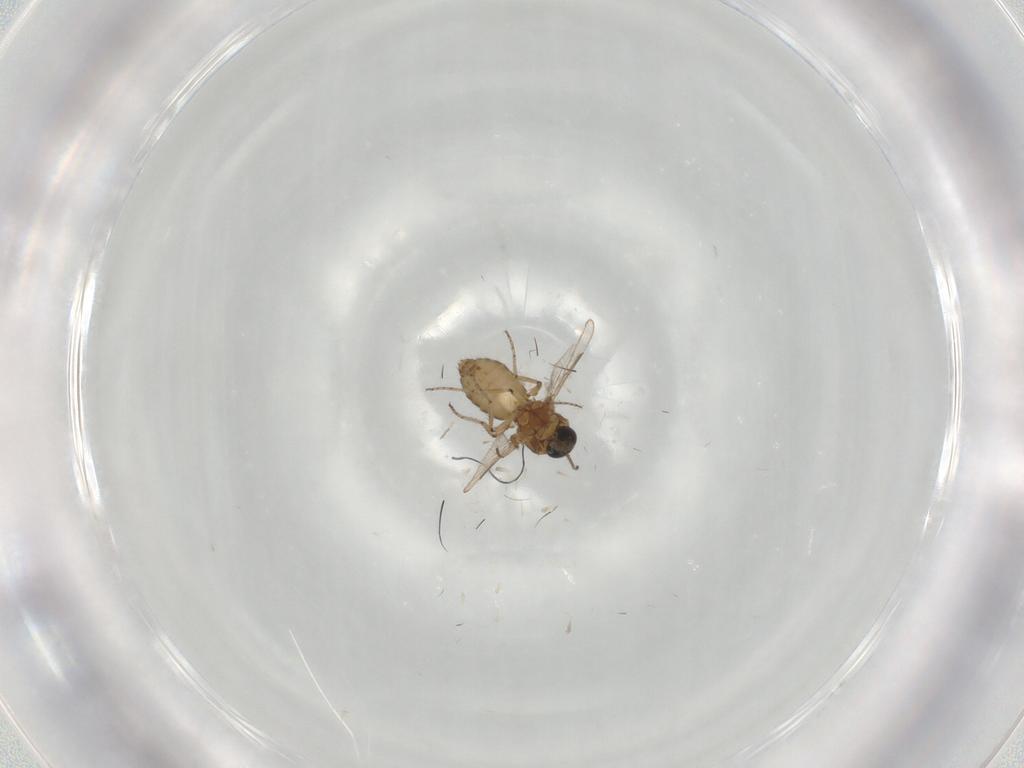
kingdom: Animalia
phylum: Arthropoda
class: Insecta
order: Diptera
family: Ceratopogonidae
